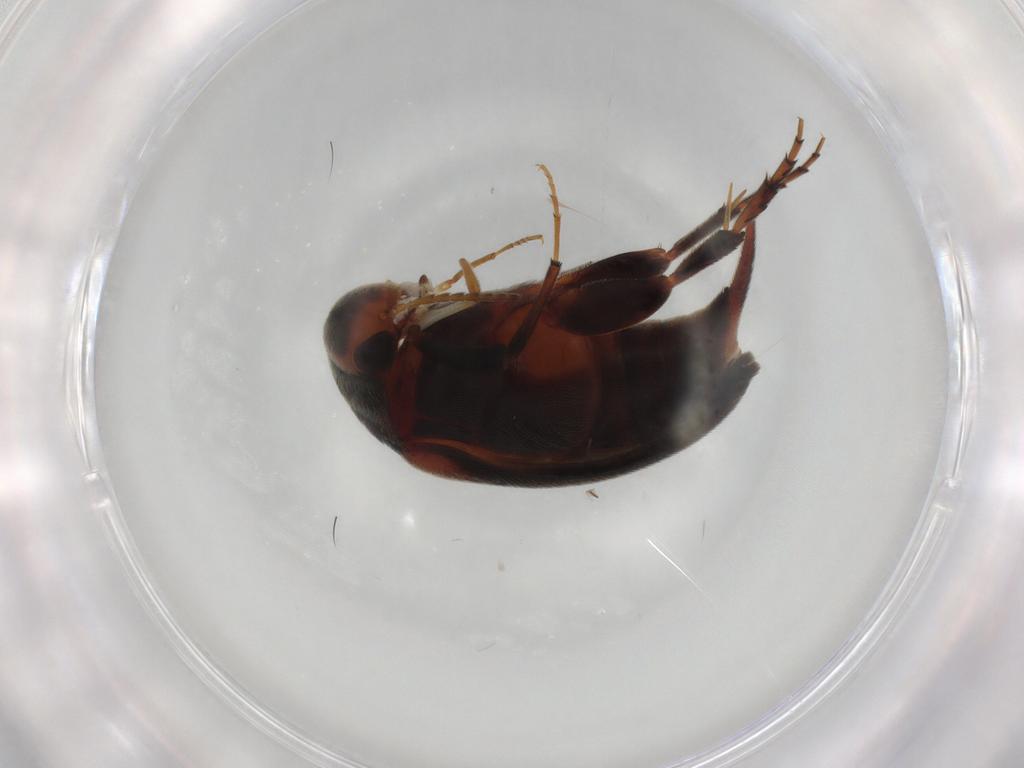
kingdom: Animalia
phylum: Arthropoda
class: Insecta
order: Coleoptera
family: Mordellidae
